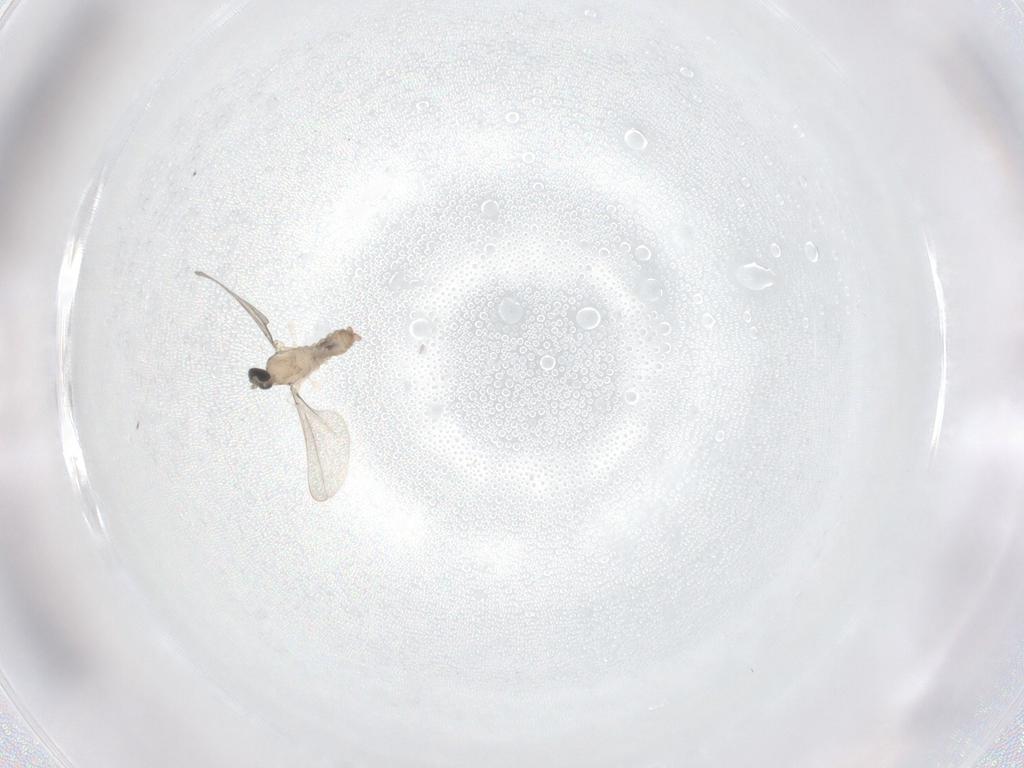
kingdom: Animalia
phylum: Arthropoda
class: Insecta
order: Diptera
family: Cecidomyiidae
